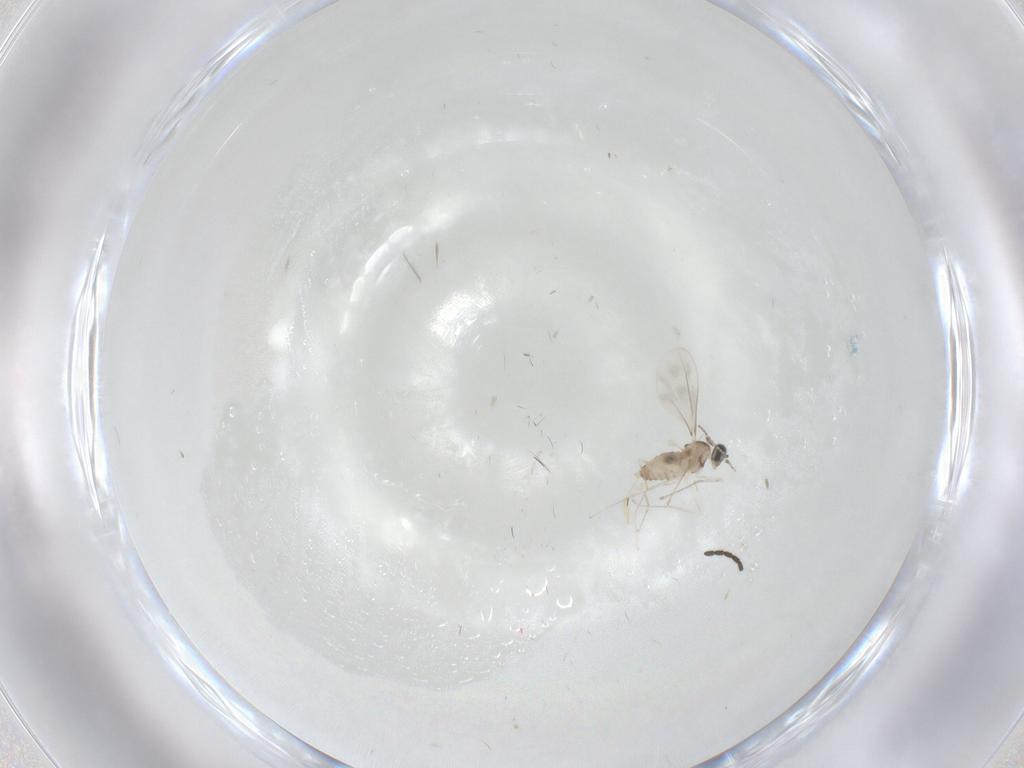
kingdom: Animalia
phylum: Arthropoda
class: Insecta
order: Diptera
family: Cecidomyiidae
